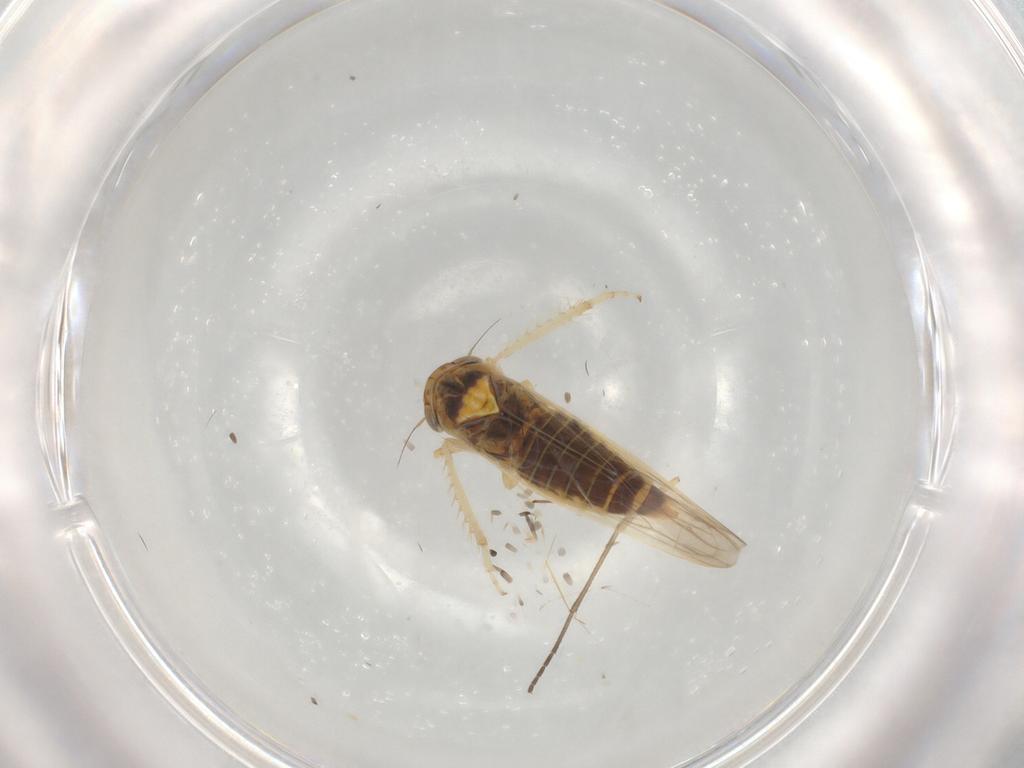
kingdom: Animalia
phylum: Arthropoda
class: Insecta
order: Hemiptera
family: Cicadellidae
